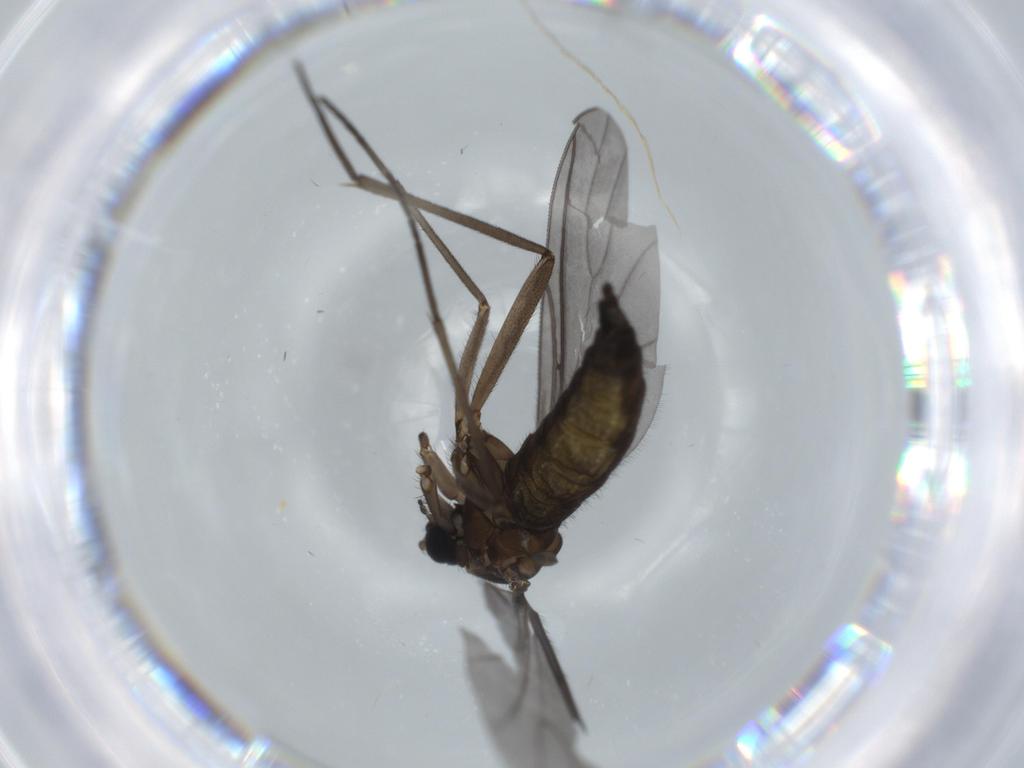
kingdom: Animalia
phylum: Arthropoda
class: Insecta
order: Diptera
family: Sciaridae
